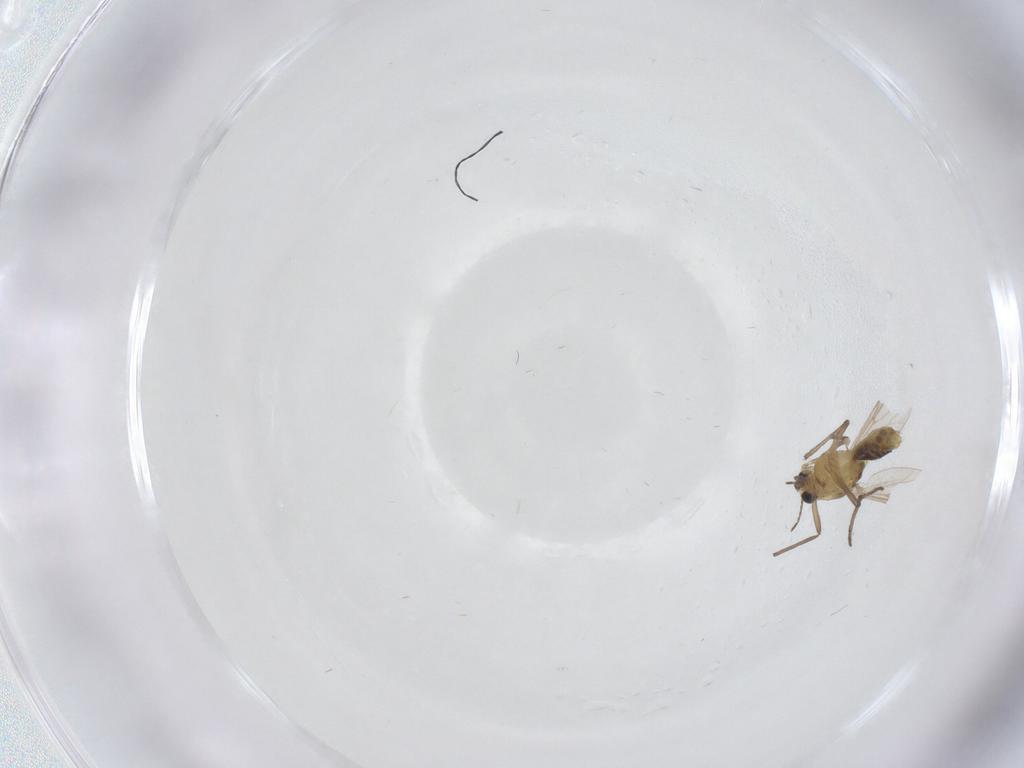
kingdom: Animalia
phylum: Arthropoda
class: Insecta
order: Diptera
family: Chironomidae
